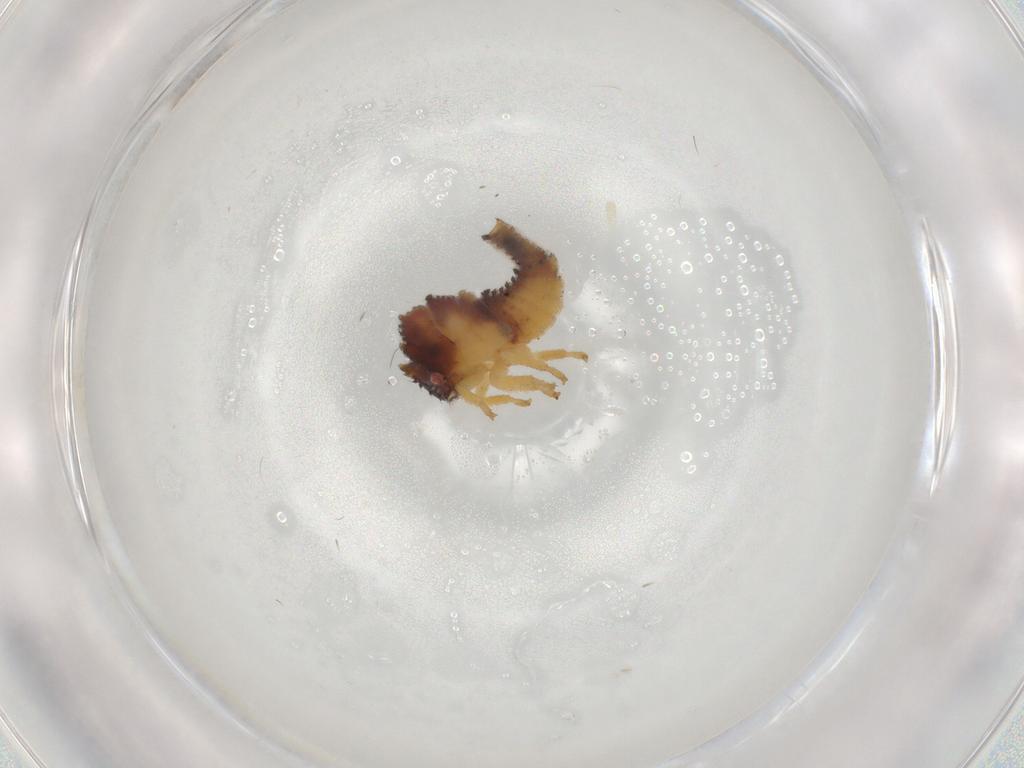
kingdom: Animalia
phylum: Arthropoda
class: Insecta
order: Hemiptera
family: Membracidae
